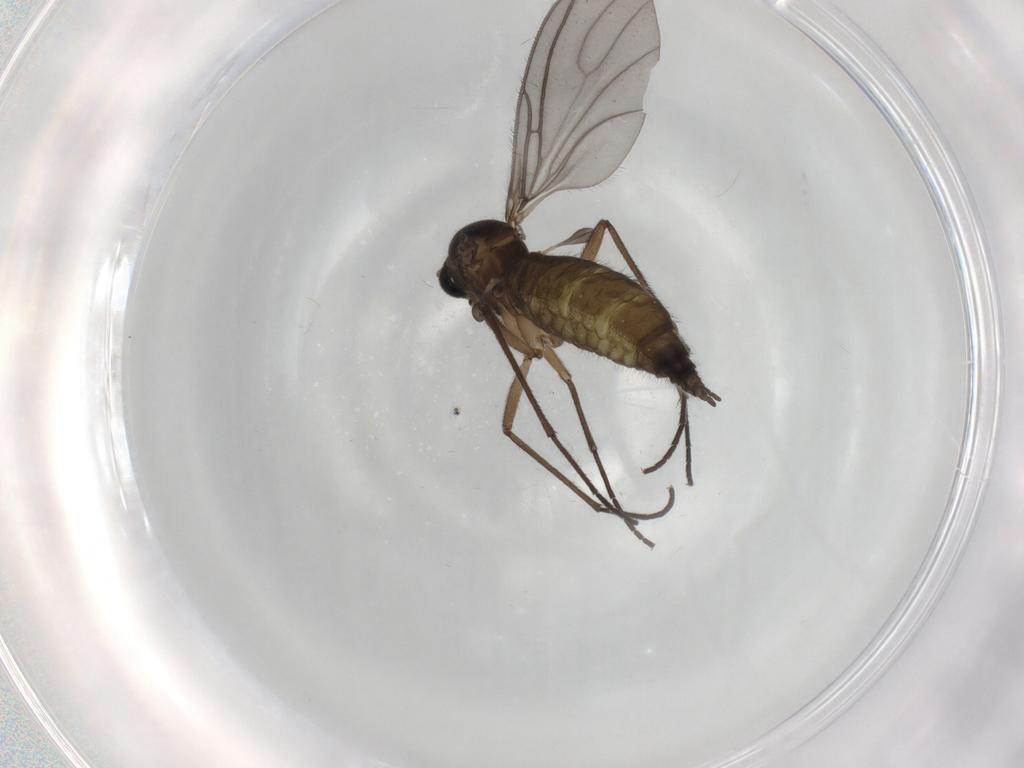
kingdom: Animalia
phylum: Arthropoda
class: Insecta
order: Diptera
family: Sciaridae
